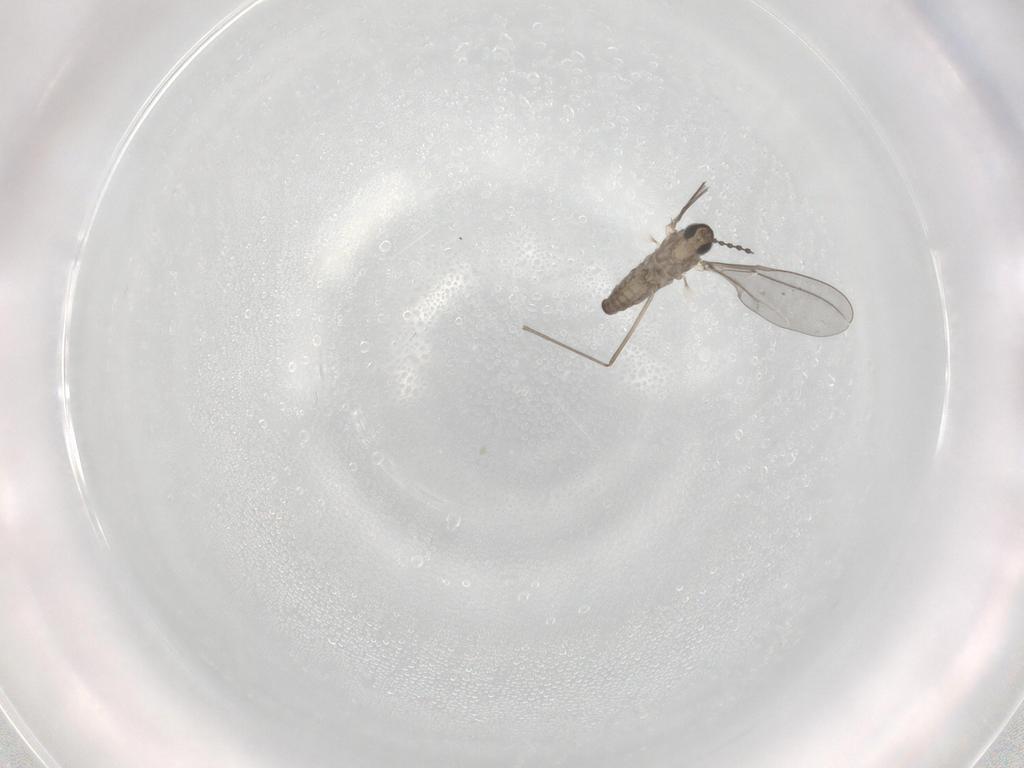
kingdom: Animalia
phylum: Arthropoda
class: Insecta
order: Diptera
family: Cecidomyiidae
